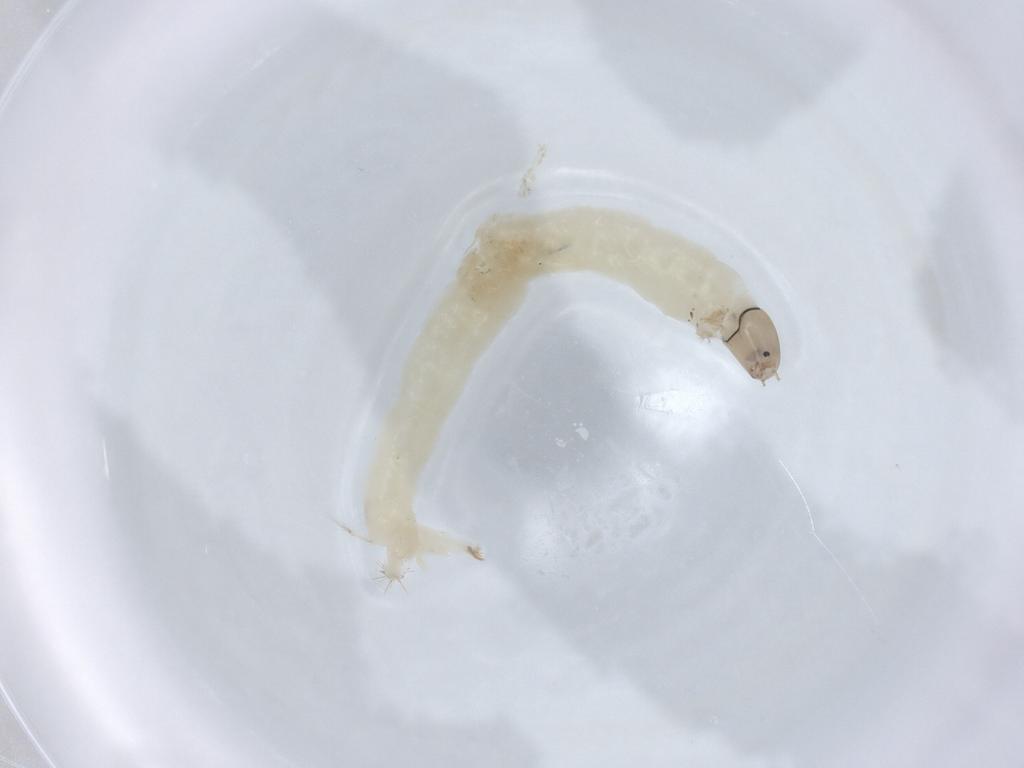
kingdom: Animalia
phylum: Arthropoda
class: Insecta
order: Diptera
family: Chironomidae
